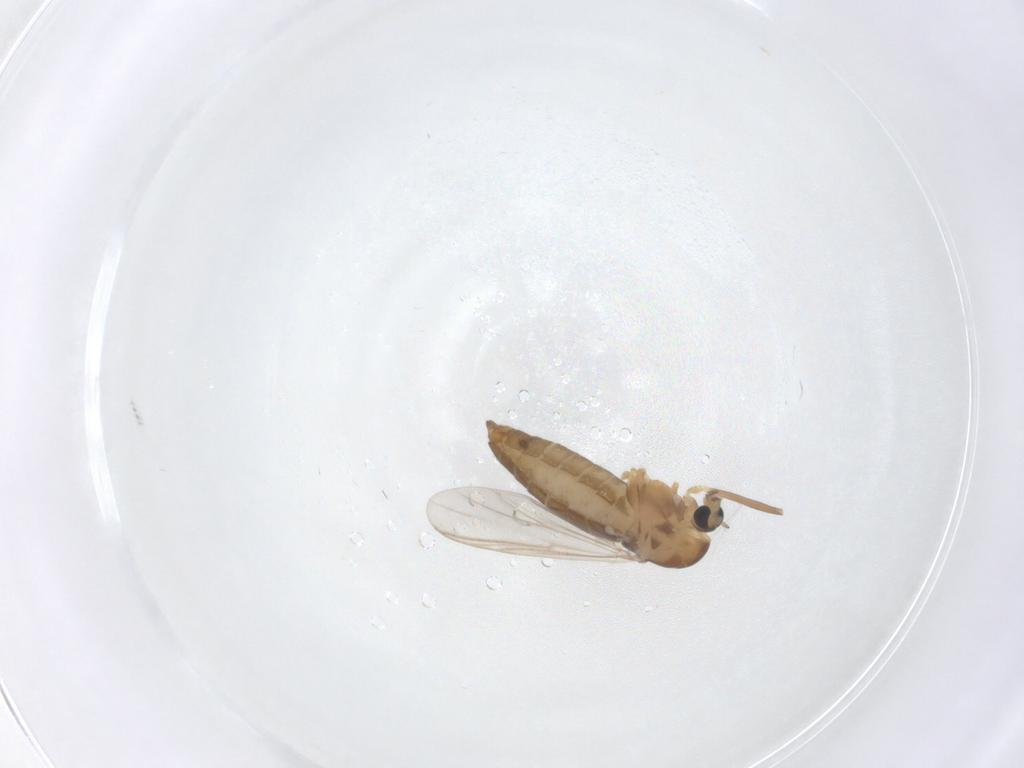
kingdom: Animalia
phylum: Arthropoda
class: Insecta
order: Diptera
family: Chironomidae
